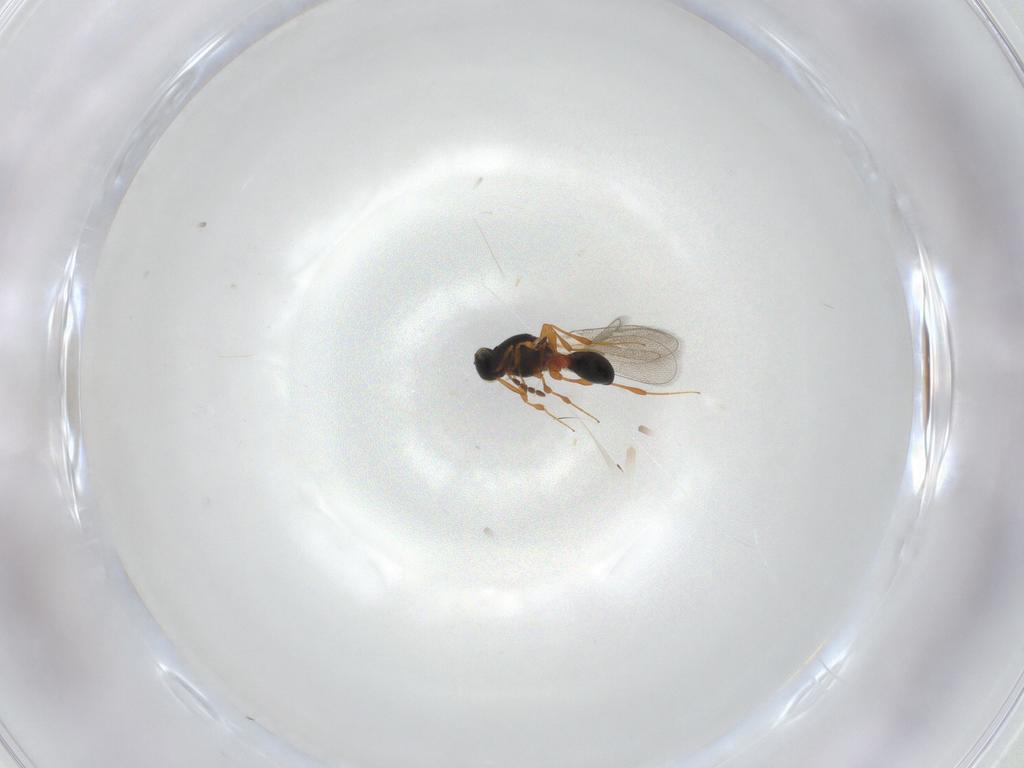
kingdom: Animalia
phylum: Arthropoda
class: Insecta
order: Hymenoptera
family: Platygastridae
